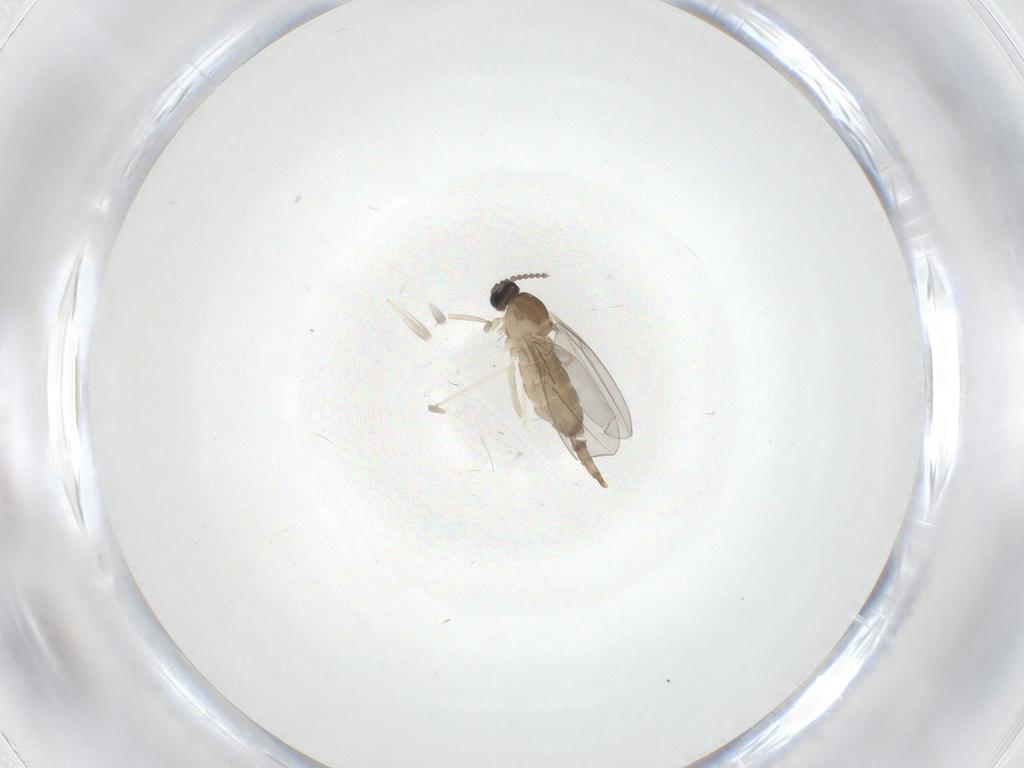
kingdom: Animalia
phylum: Arthropoda
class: Insecta
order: Diptera
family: Cecidomyiidae
